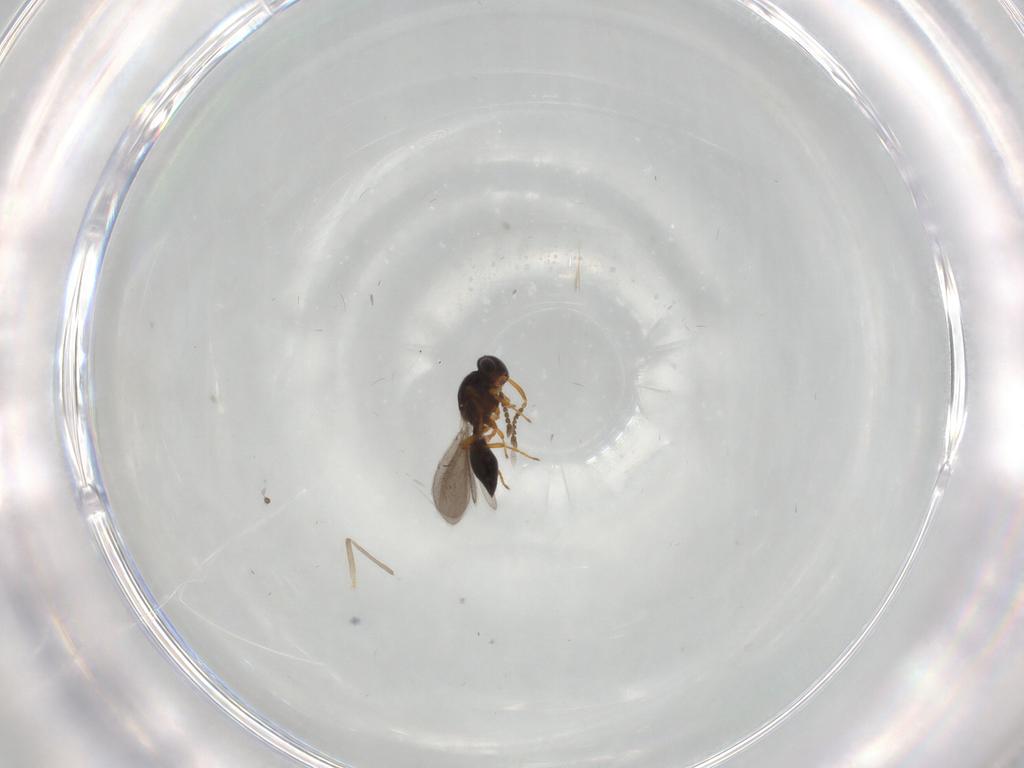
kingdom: Animalia
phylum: Arthropoda
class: Insecta
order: Hymenoptera
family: Platygastridae
